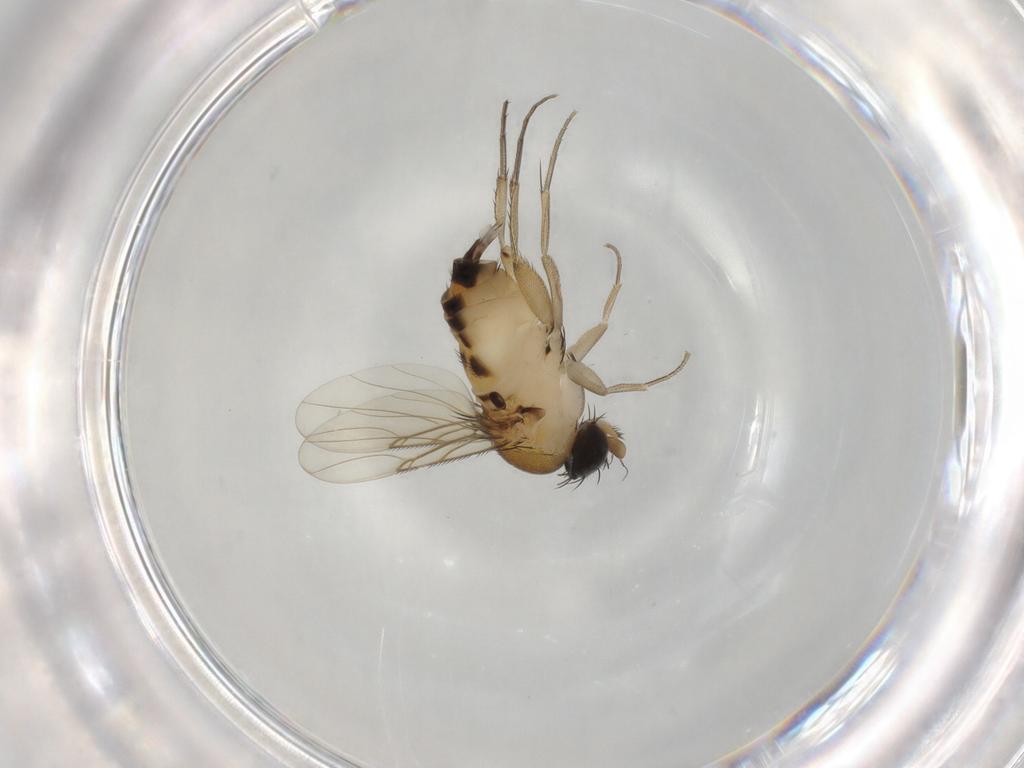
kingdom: Animalia
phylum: Arthropoda
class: Insecta
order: Diptera
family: Phoridae
